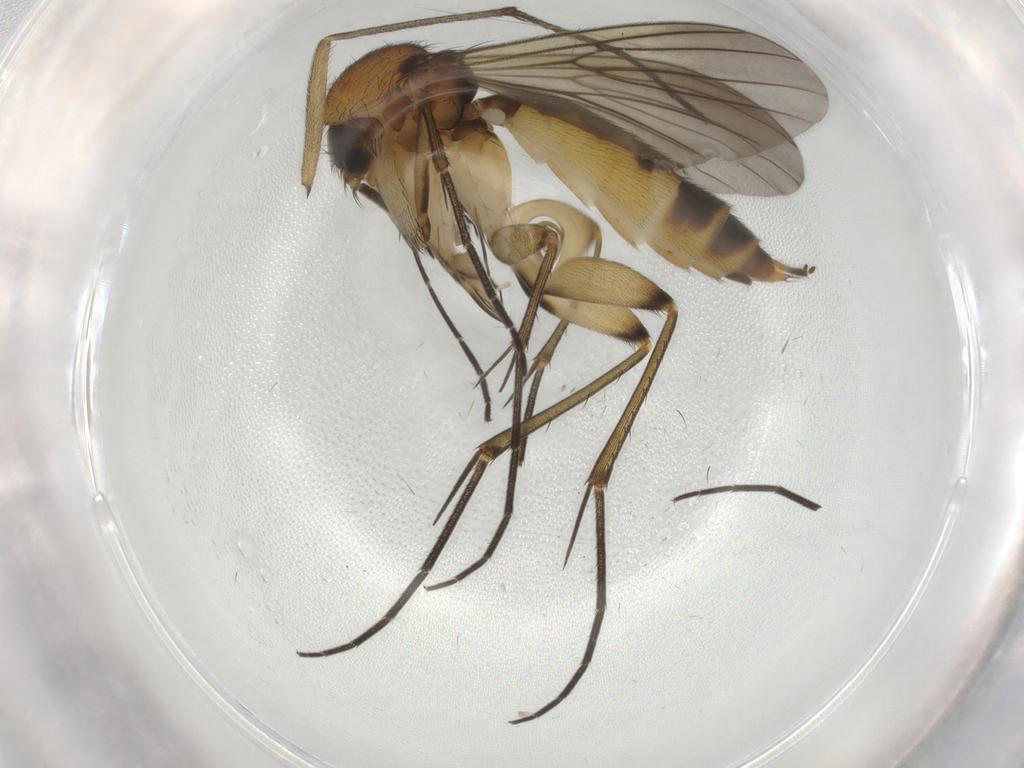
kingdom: Animalia
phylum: Arthropoda
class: Insecta
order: Diptera
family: Mycetophilidae
